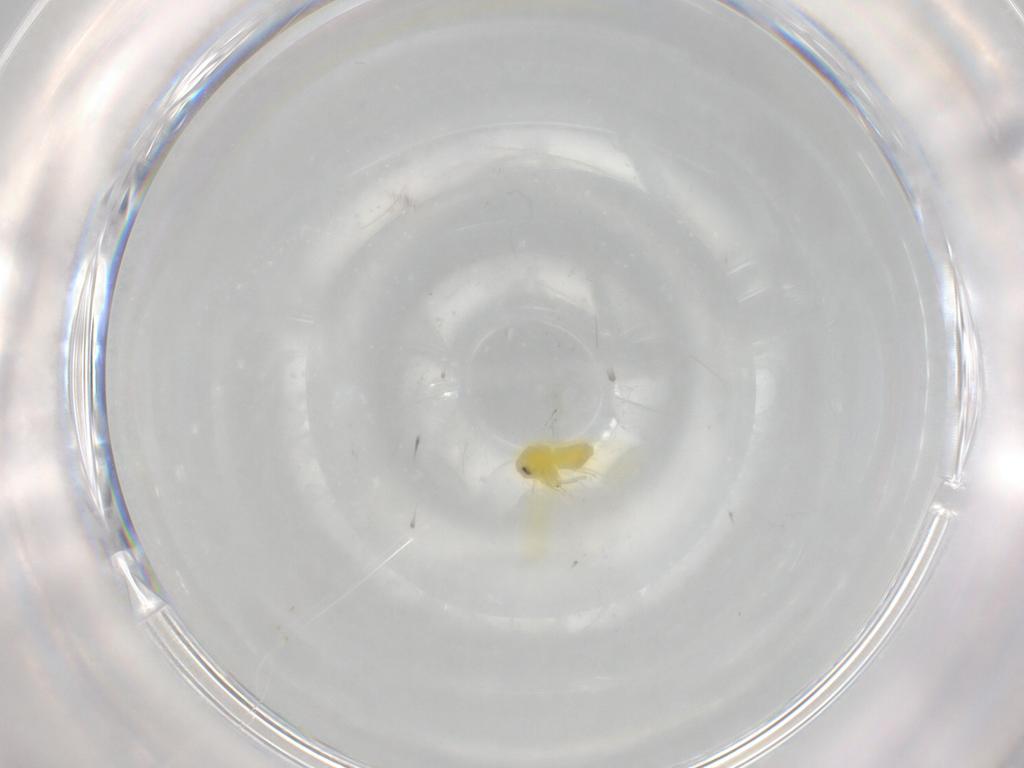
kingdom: Animalia
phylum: Arthropoda
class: Insecta
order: Hemiptera
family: Aleyrodidae
